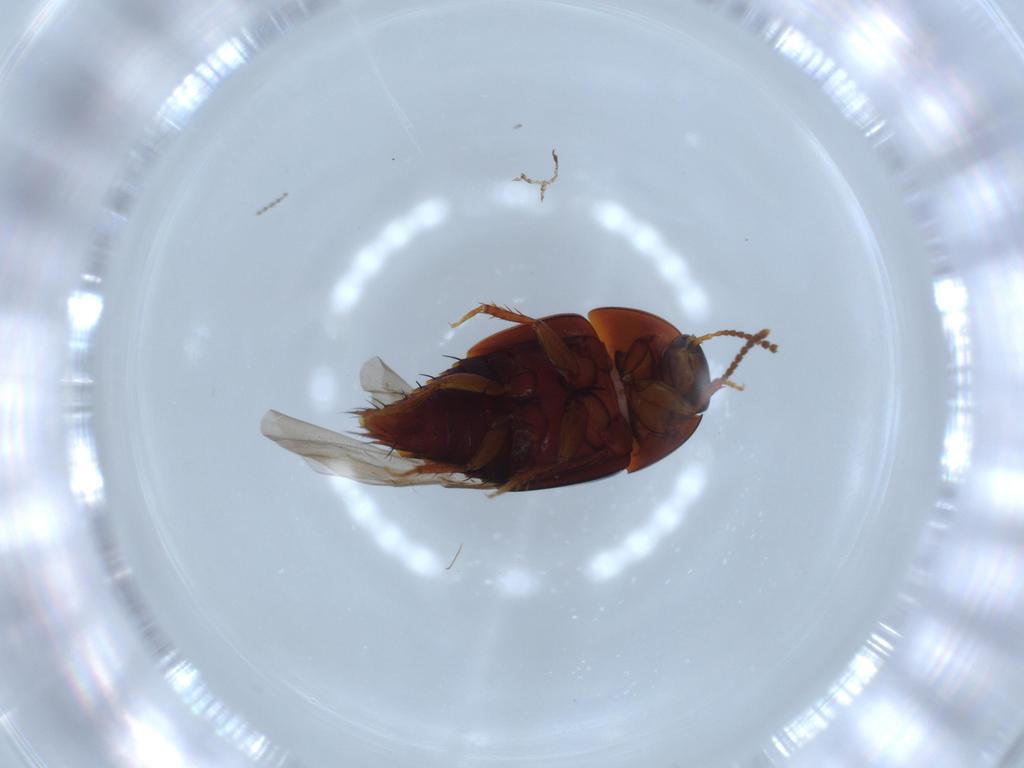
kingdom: Animalia
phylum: Arthropoda
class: Insecta
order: Coleoptera
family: Staphylinidae
